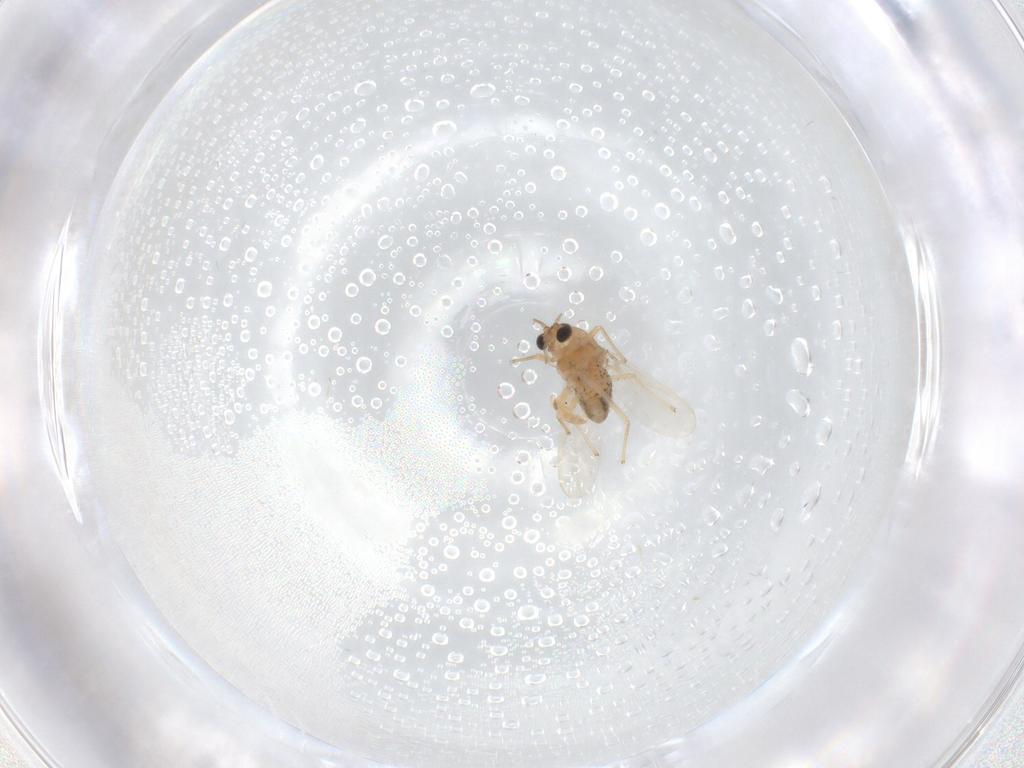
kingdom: Animalia
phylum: Arthropoda
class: Insecta
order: Diptera
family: Chironomidae
